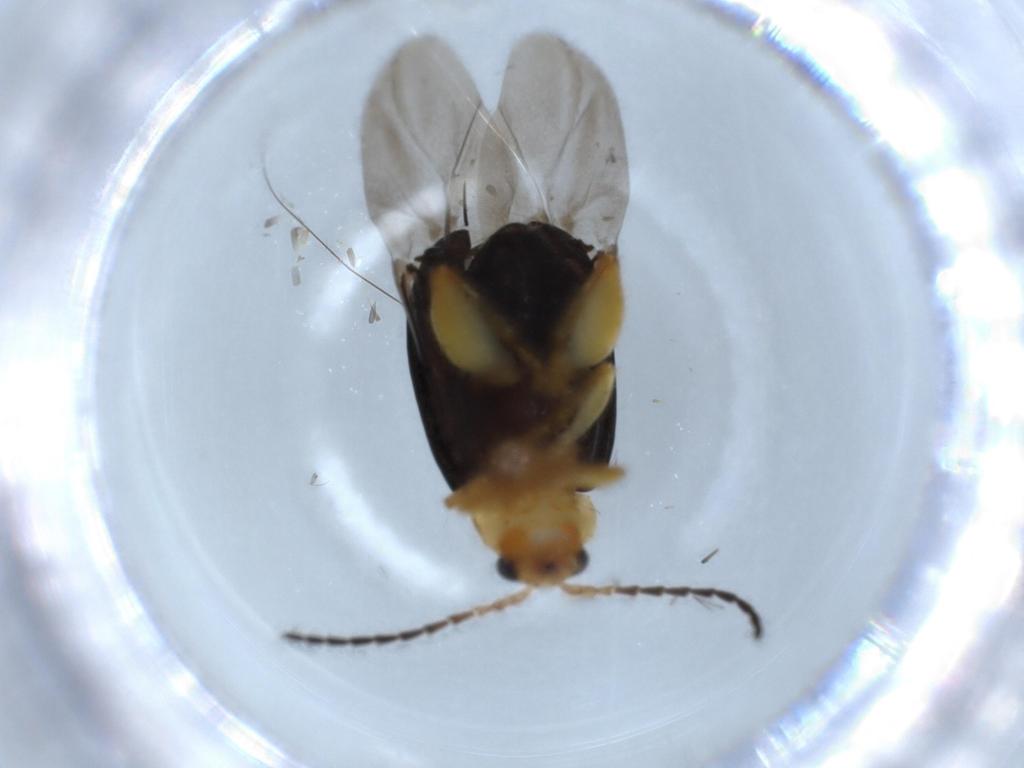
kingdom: Animalia
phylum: Arthropoda
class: Insecta
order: Coleoptera
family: Chrysomelidae
